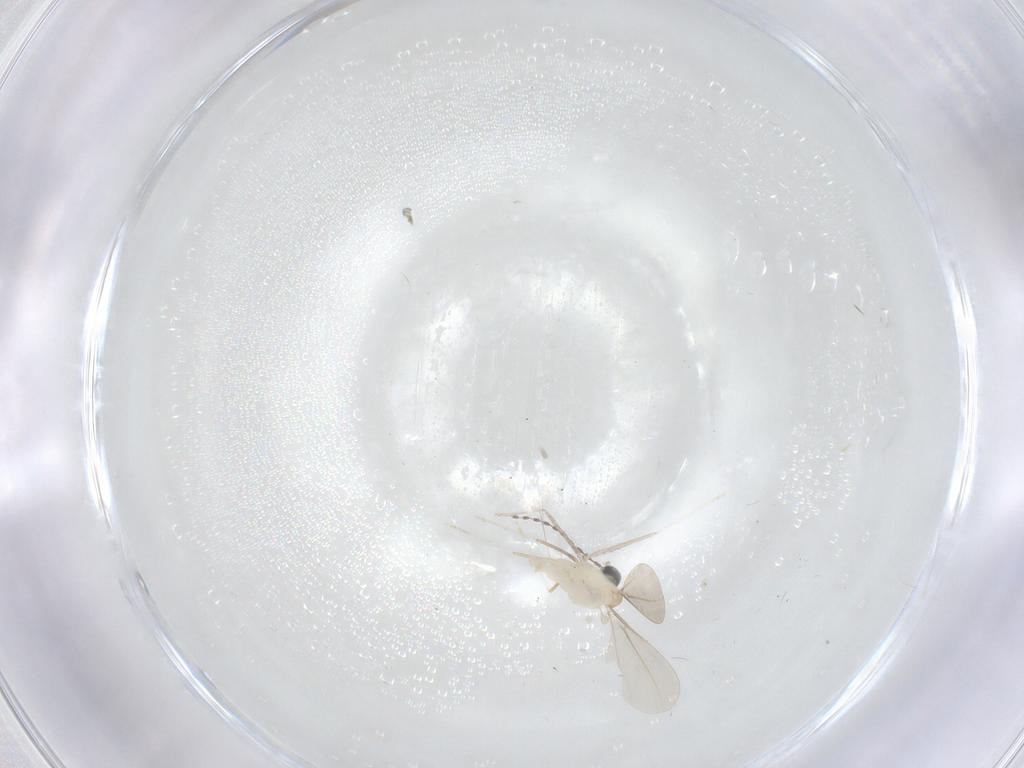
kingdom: Animalia
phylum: Arthropoda
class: Insecta
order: Diptera
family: Cecidomyiidae
